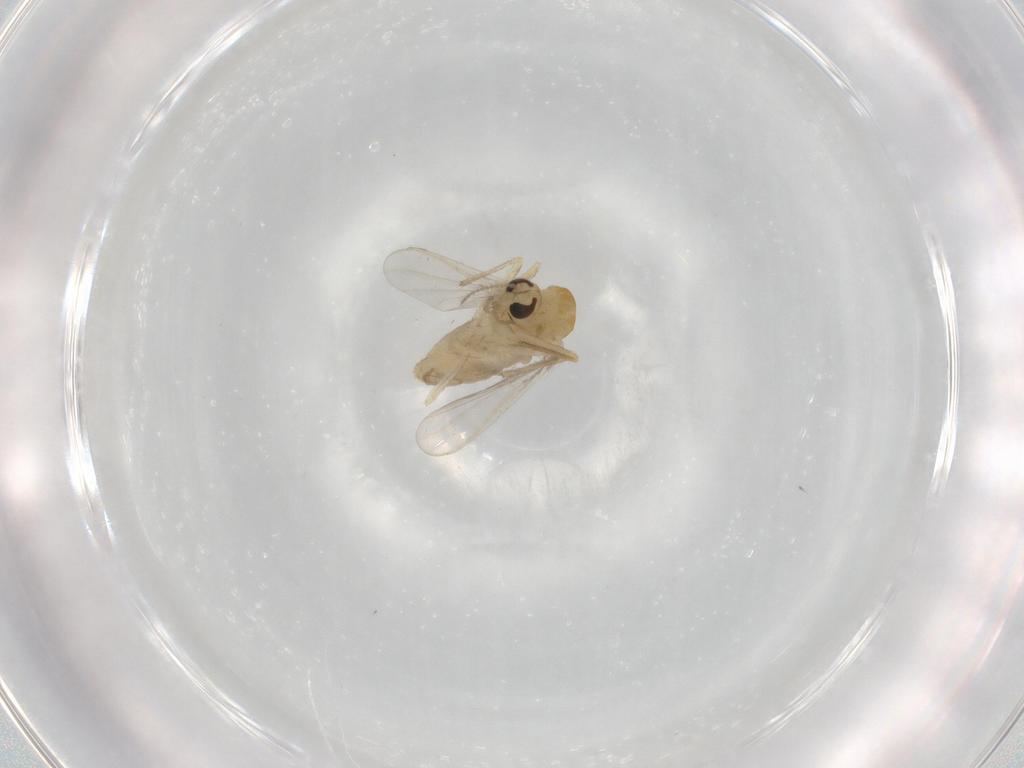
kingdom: Animalia
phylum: Arthropoda
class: Insecta
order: Diptera
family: Chironomidae
